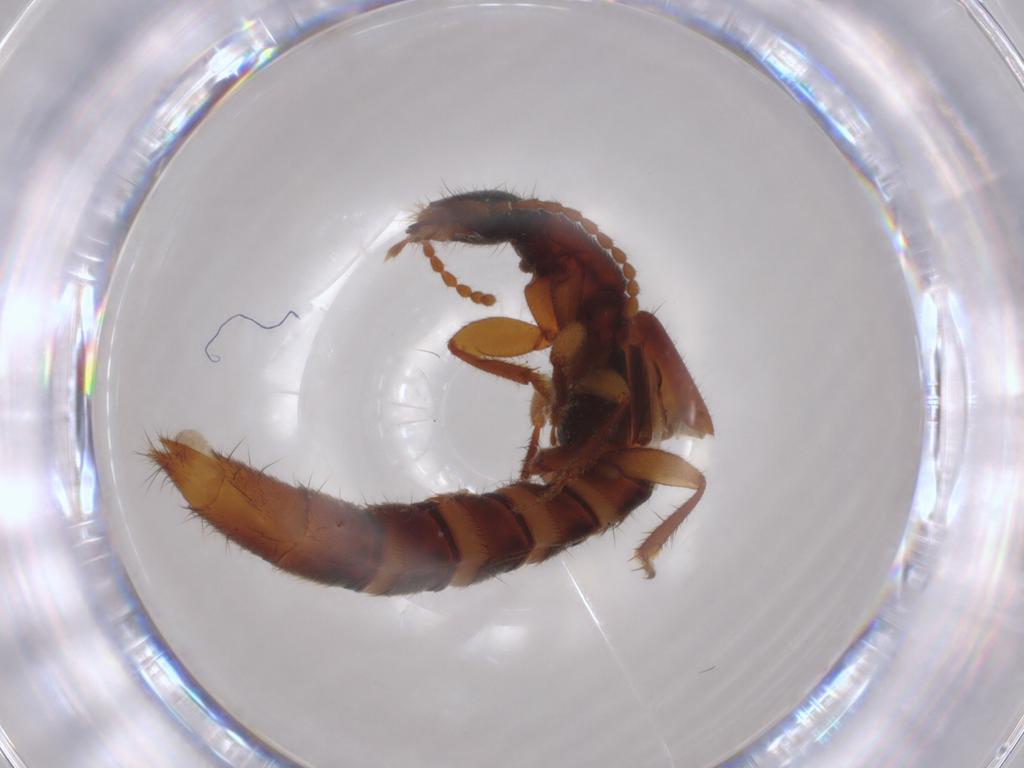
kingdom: Animalia
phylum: Arthropoda
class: Insecta
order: Coleoptera
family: Staphylinidae
